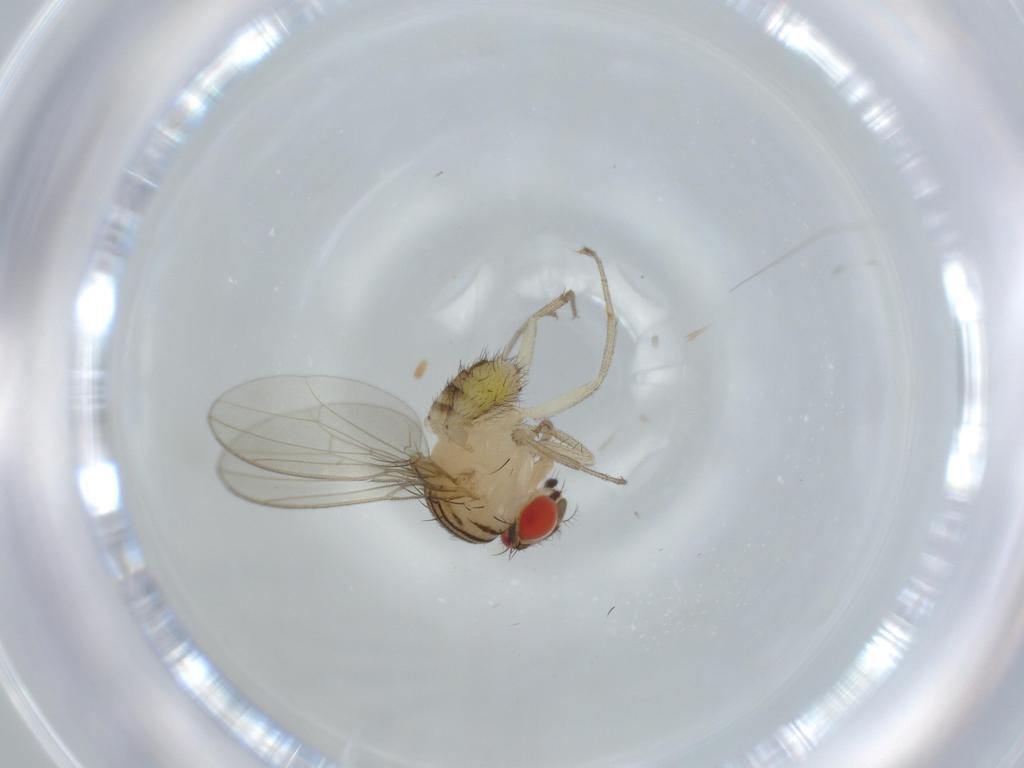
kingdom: Animalia
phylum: Arthropoda
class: Insecta
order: Diptera
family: Drosophilidae
